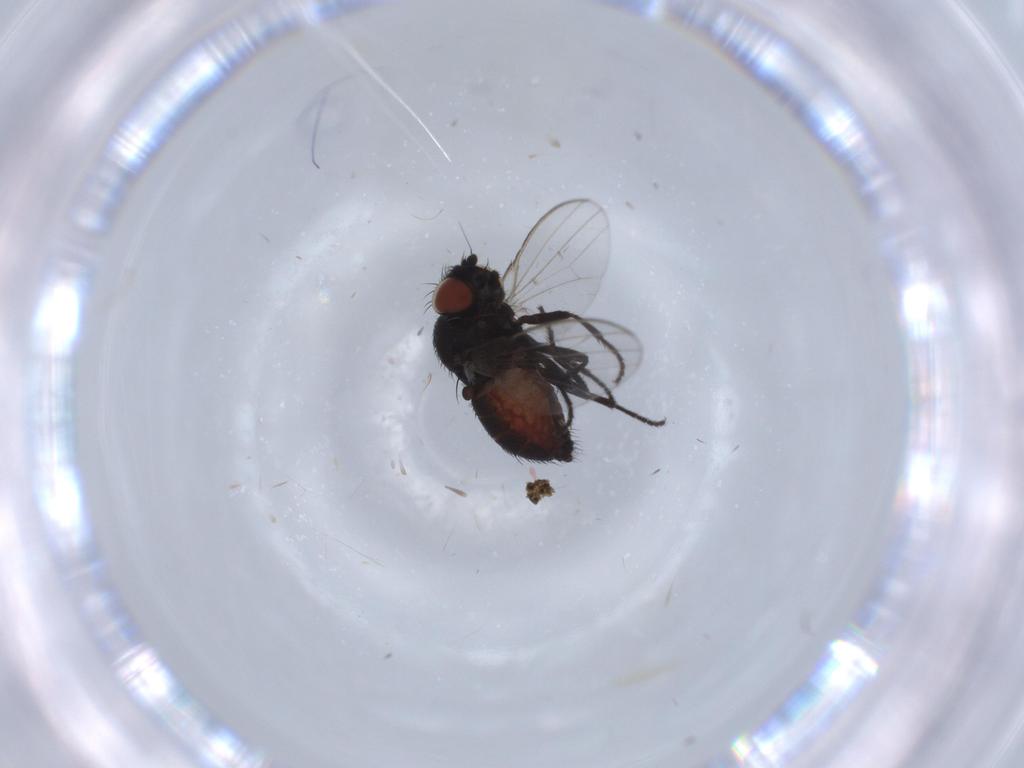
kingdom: Animalia
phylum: Arthropoda
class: Insecta
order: Diptera
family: Milichiidae
